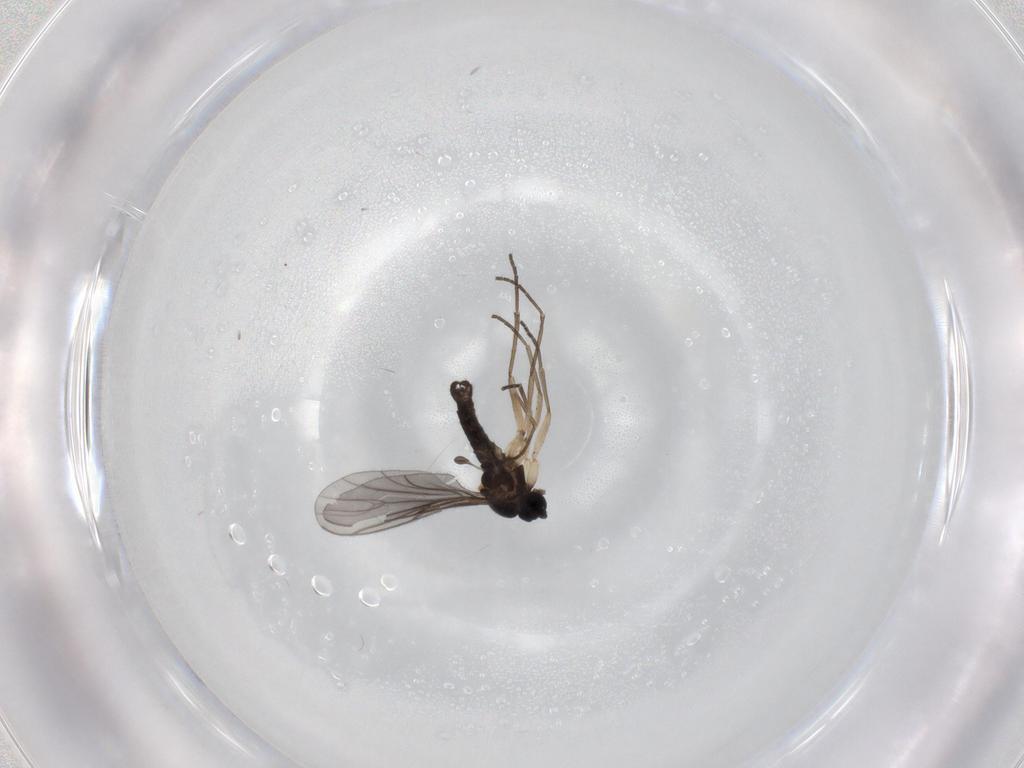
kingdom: Animalia
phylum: Arthropoda
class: Insecta
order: Diptera
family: Sciaridae
